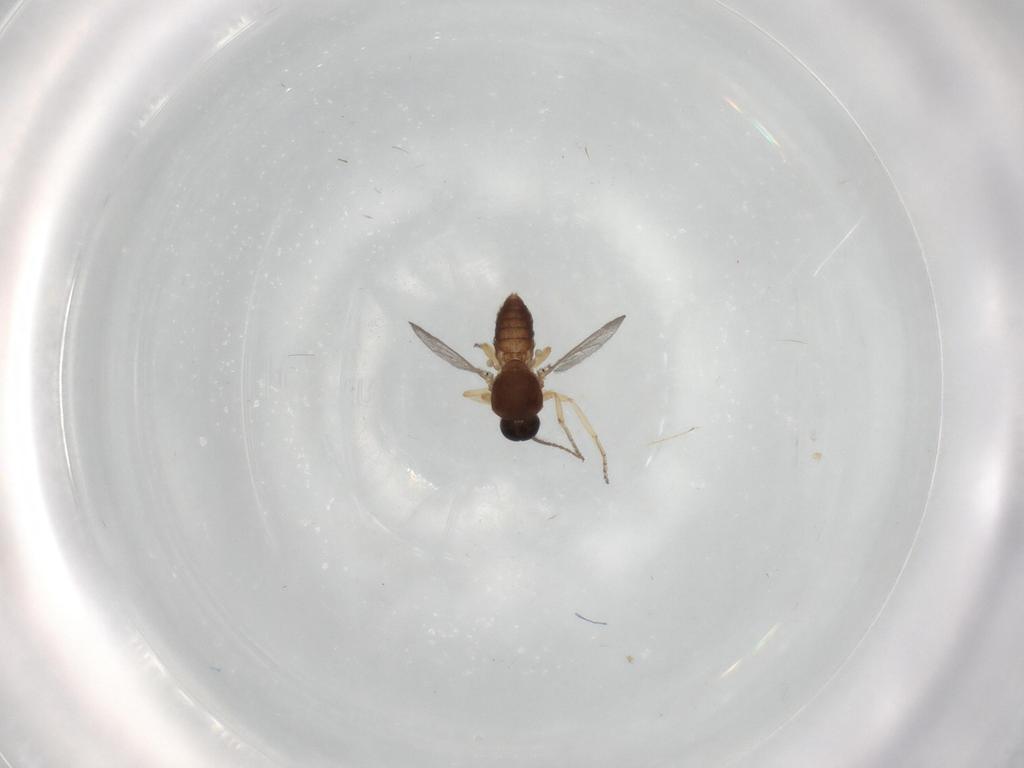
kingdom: Animalia
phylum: Arthropoda
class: Insecta
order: Diptera
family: Ceratopogonidae
